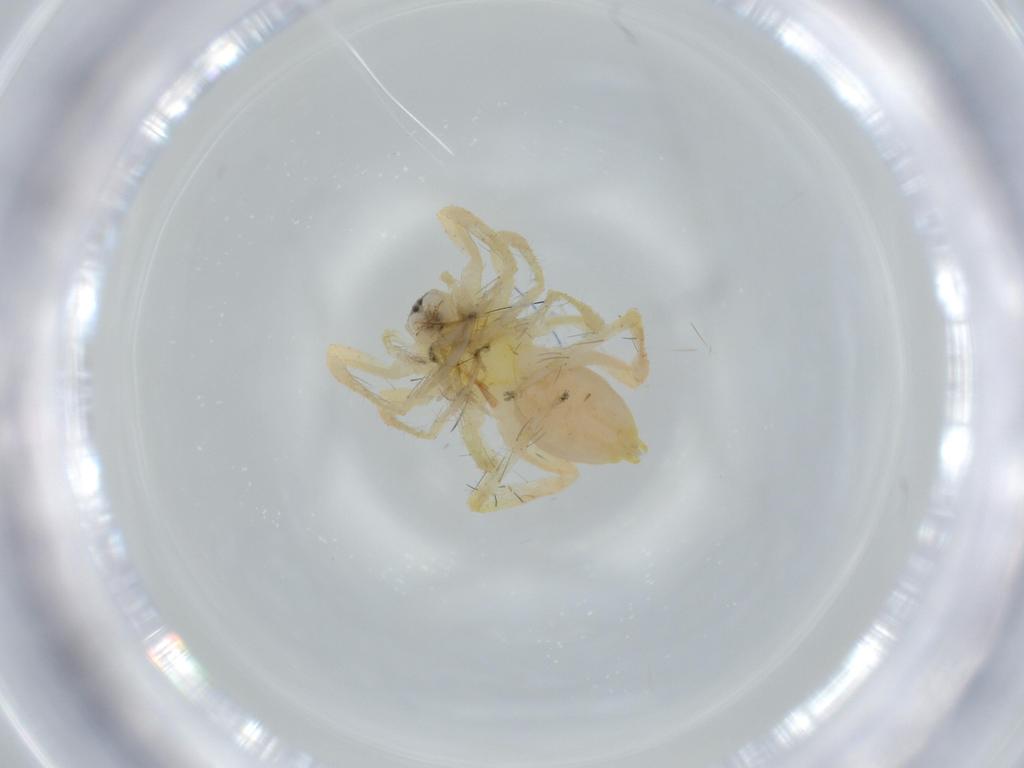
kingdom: Animalia
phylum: Arthropoda
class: Arachnida
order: Araneae
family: Anyphaenidae
